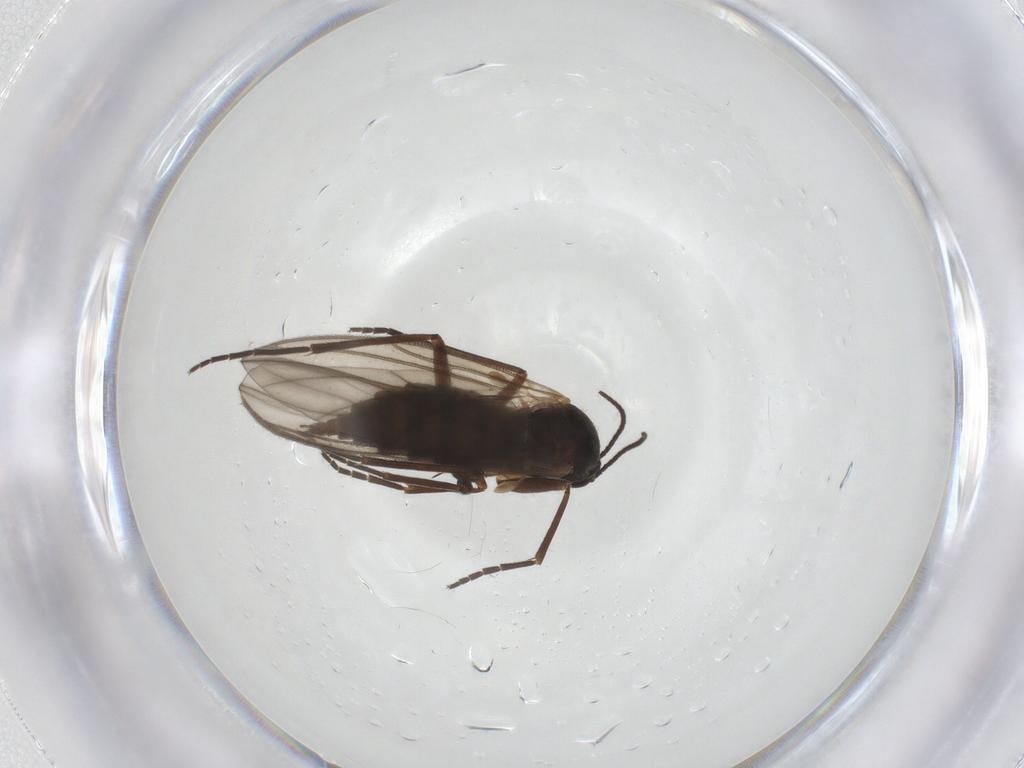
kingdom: Animalia
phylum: Arthropoda
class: Insecta
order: Diptera
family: Sciaridae
